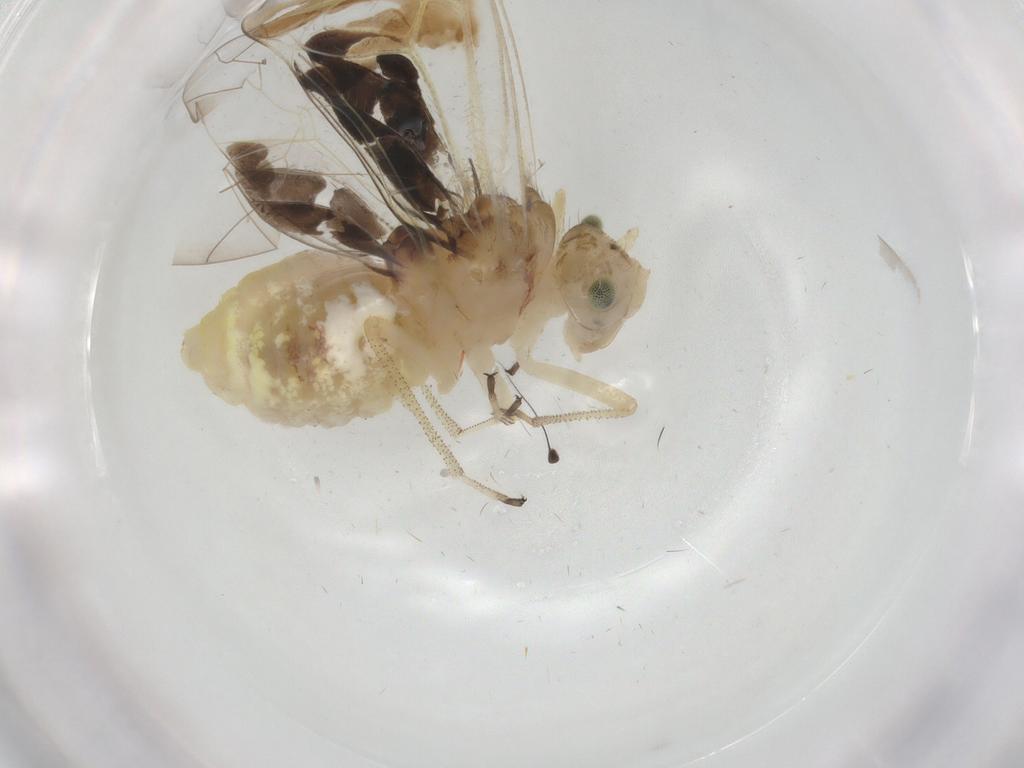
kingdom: Animalia
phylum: Arthropoda
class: Insecta
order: Psocodea
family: Amphipsocidae
